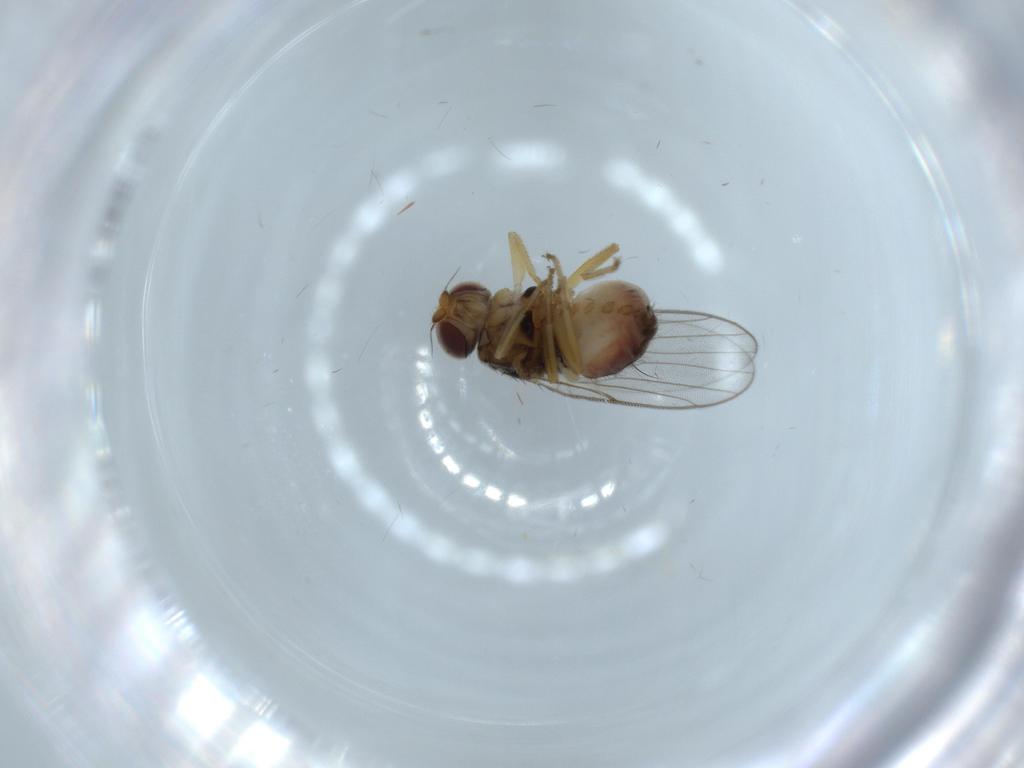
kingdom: Animalia
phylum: Arthropoda
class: Insecta
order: Diptera
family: Chloropidae
